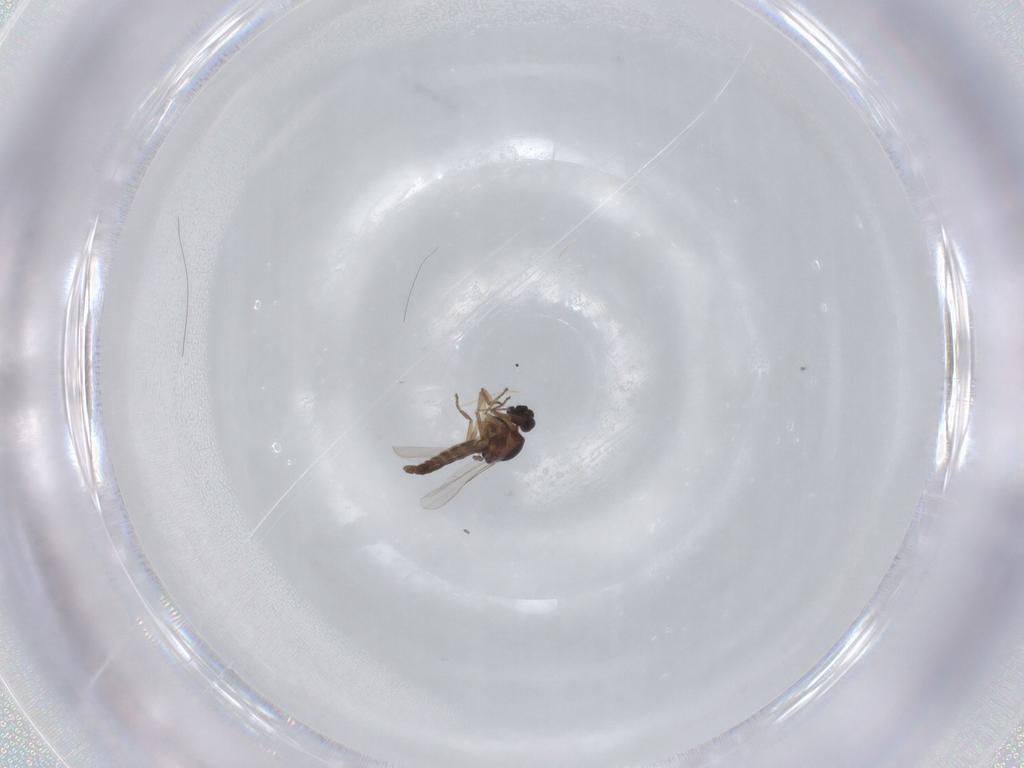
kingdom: Animalia
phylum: Arthropoda
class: Insecta
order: Diptera
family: Ceratopogonidae
